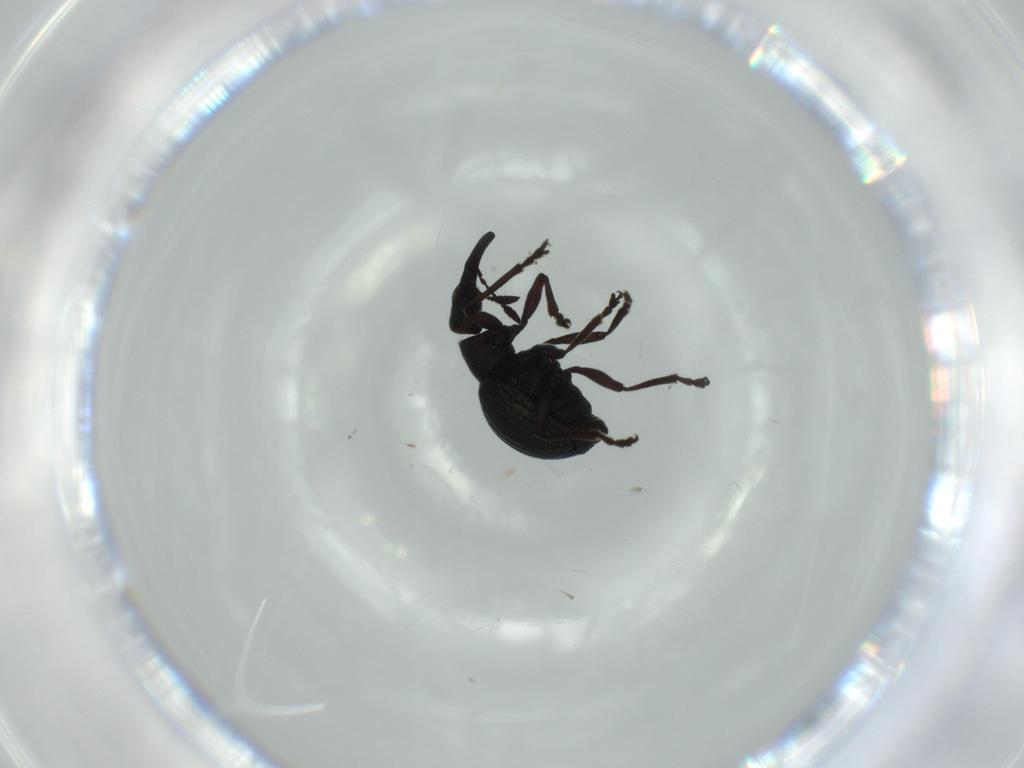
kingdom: Animalia
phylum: Arthropoda
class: Insecta
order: Coleoptera
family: Brentidae
